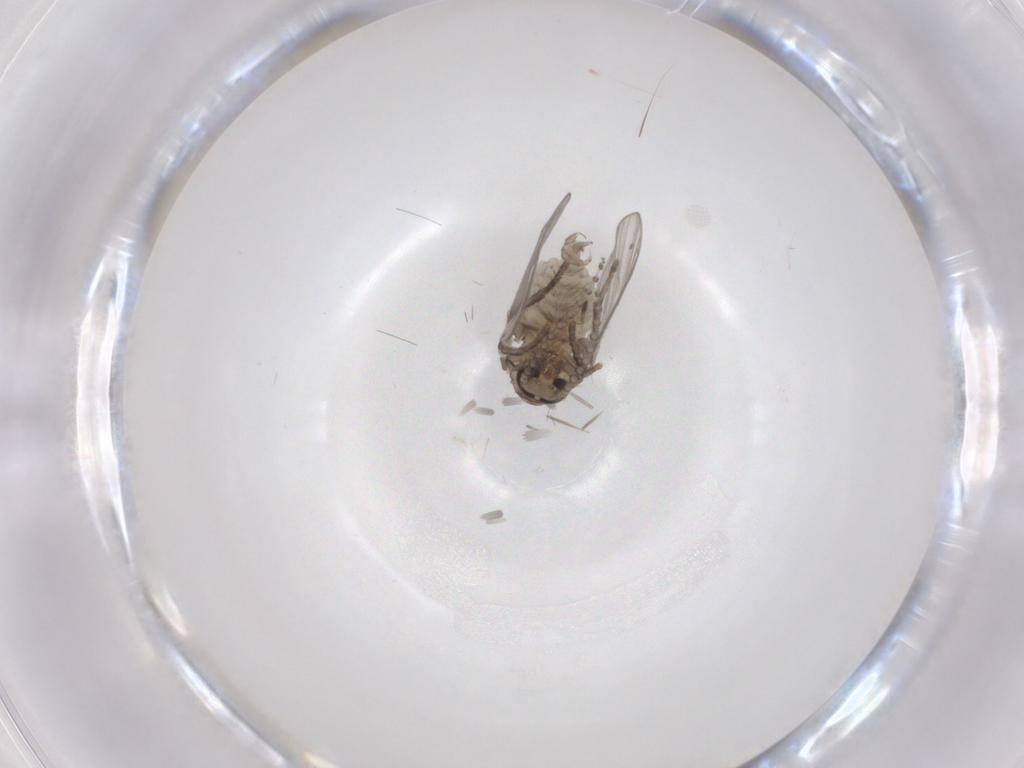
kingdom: Animalia
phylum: Arthropoda
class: Insecta
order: Diptera
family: Psychodidae
